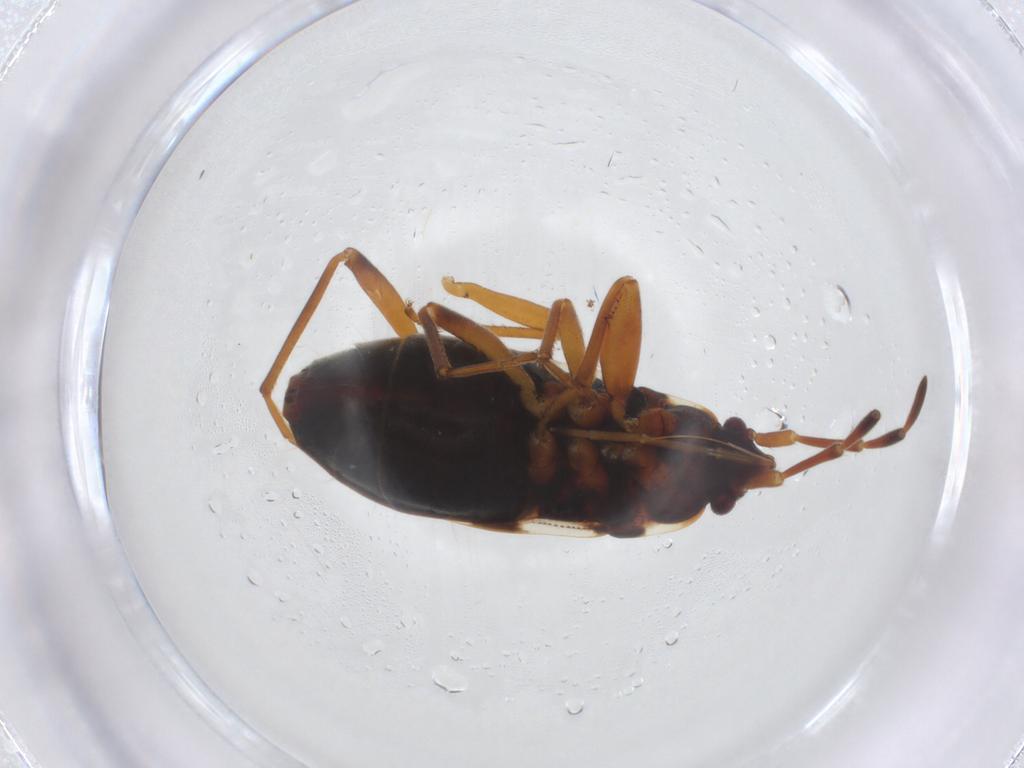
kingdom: Animalia
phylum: Arthropoda
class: Insecta
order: Hemiptera
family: Rhyparochromidae
